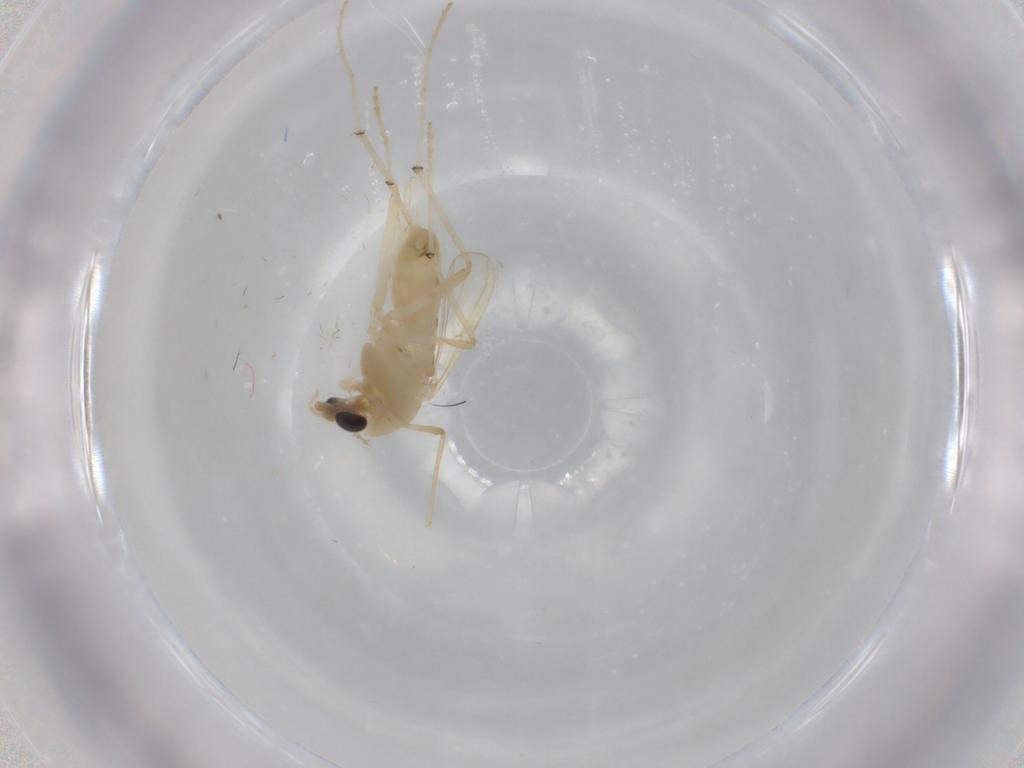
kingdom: Animalia
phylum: Arthropoda
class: Insecta
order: Diptera
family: Chironomidae
